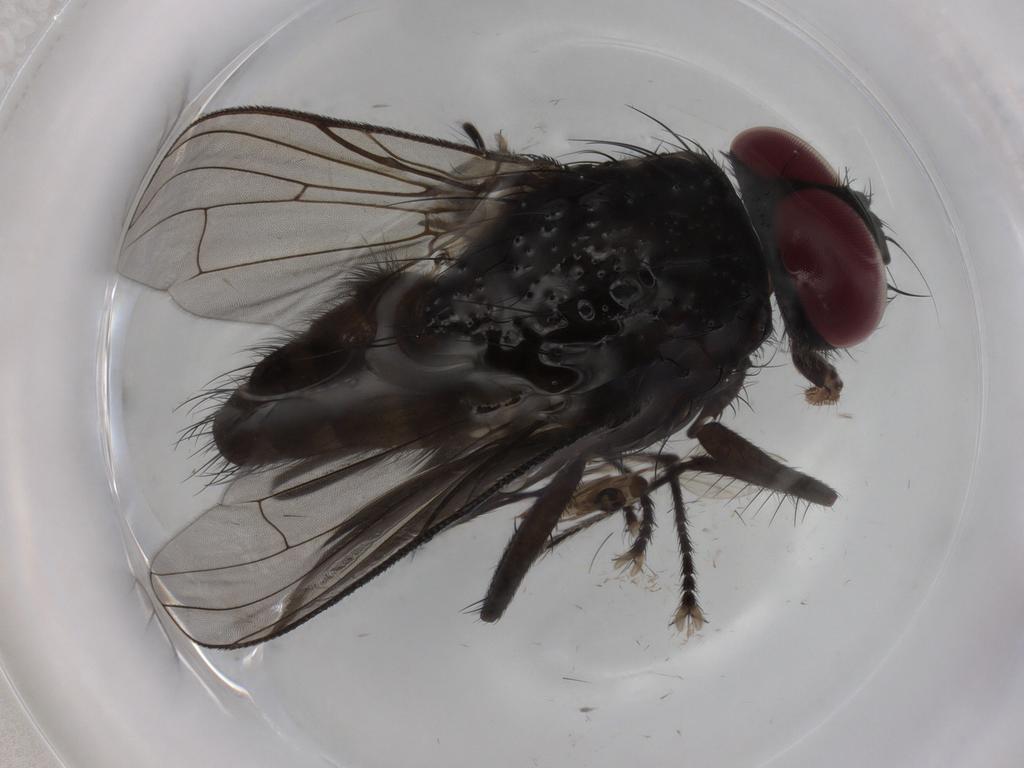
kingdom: Animalia
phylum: Arthropoda
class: Insecta
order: Diptera
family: Muscidae
